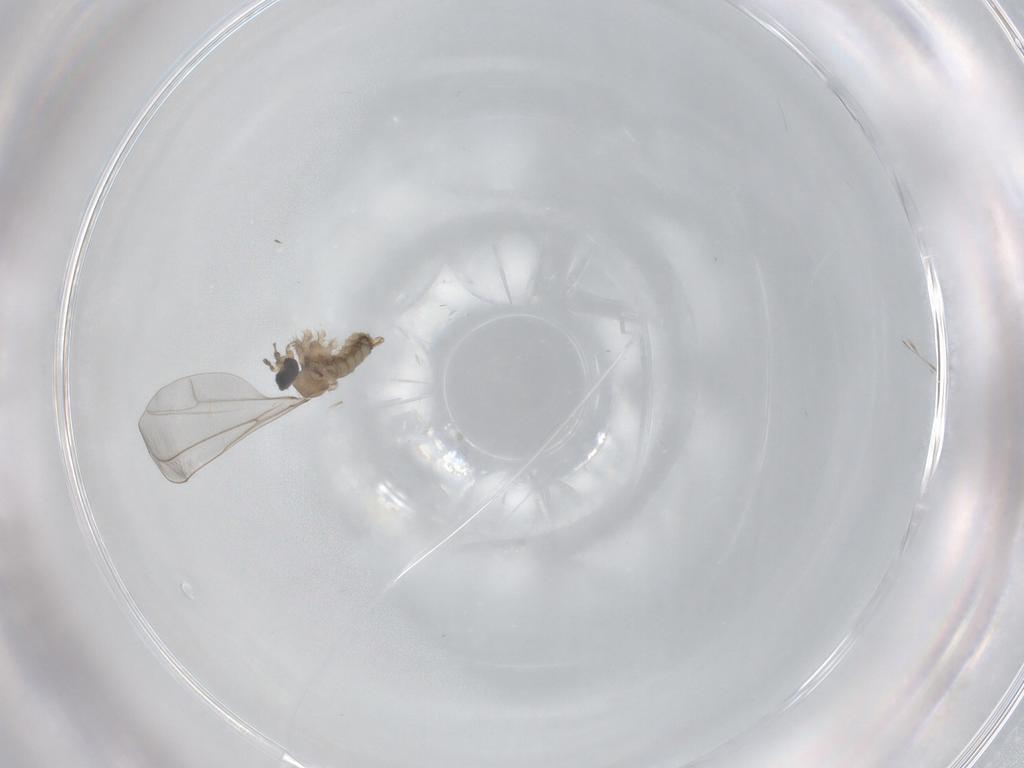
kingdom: Animalia
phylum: Arthropoda
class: Insecta
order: Diptera
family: Cecidomyiidae
